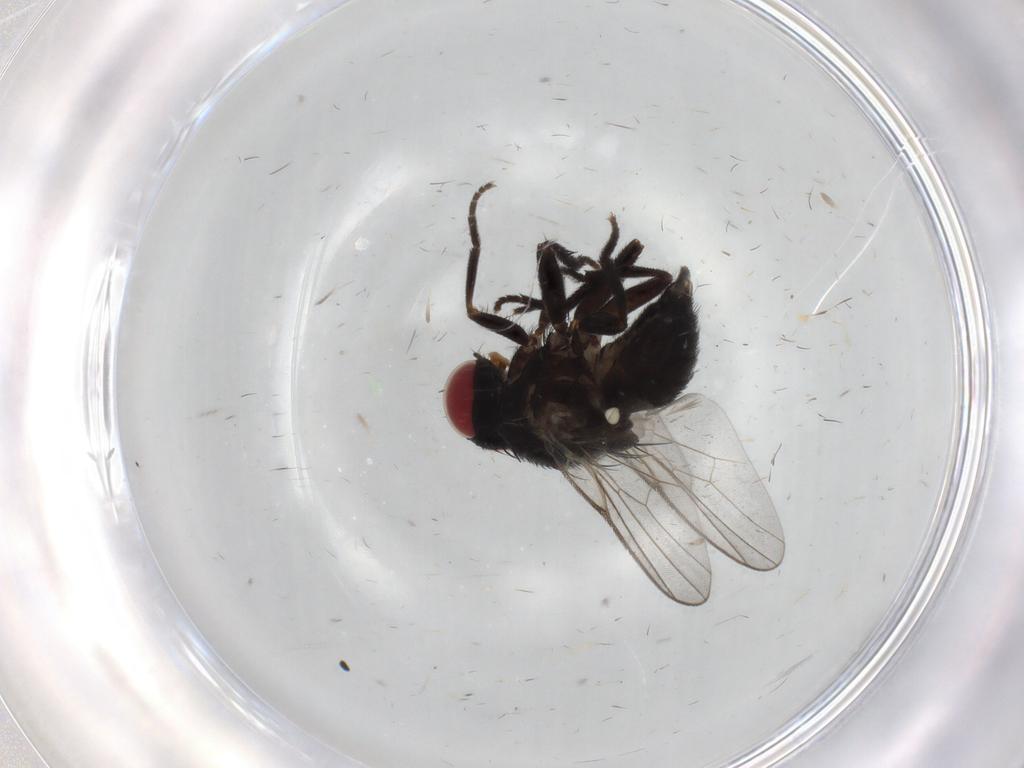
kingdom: Animalia
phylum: Arthropoda
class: Insecta
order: Diptera
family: Agromyzidae
